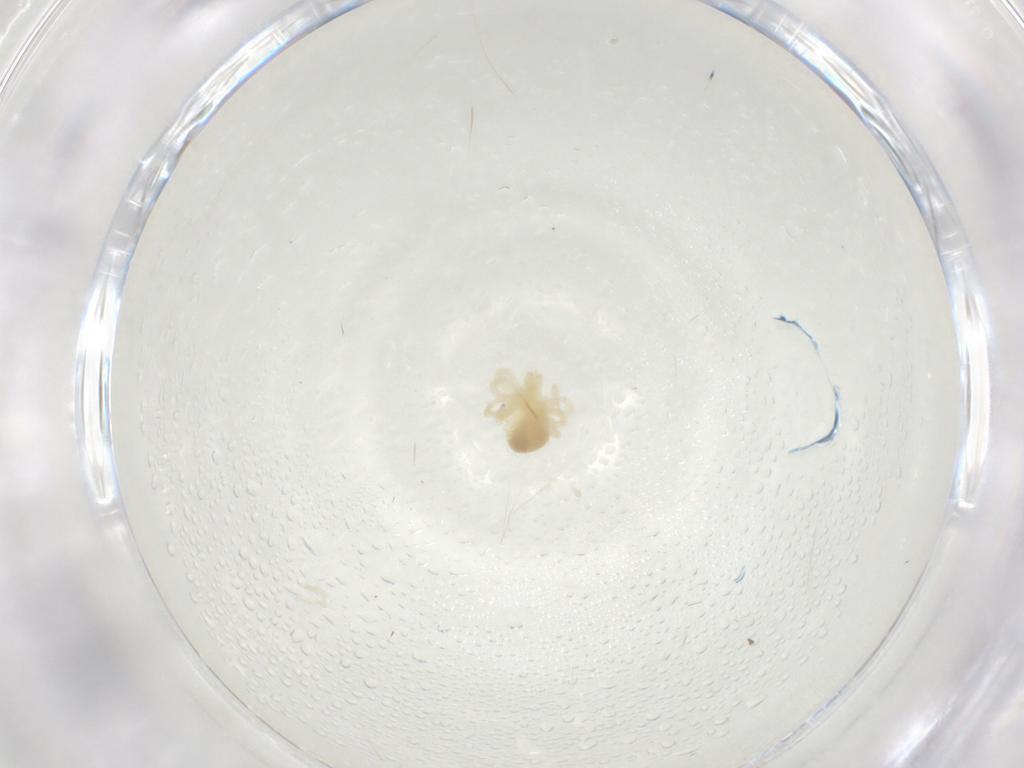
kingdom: Animalia
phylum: Arthropoda
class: Arachnida
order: Trombidiformes
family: Anystidae
